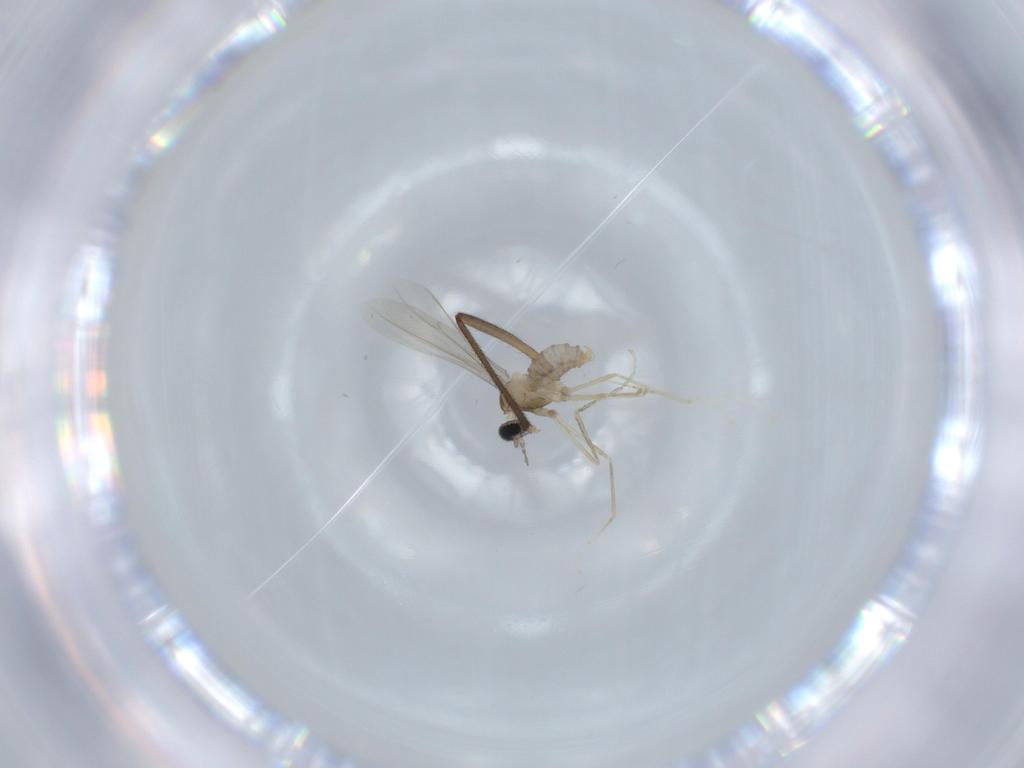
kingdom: Animalia
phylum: Arthropoda
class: Insecta
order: Diptera
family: Cecidomyiidae
